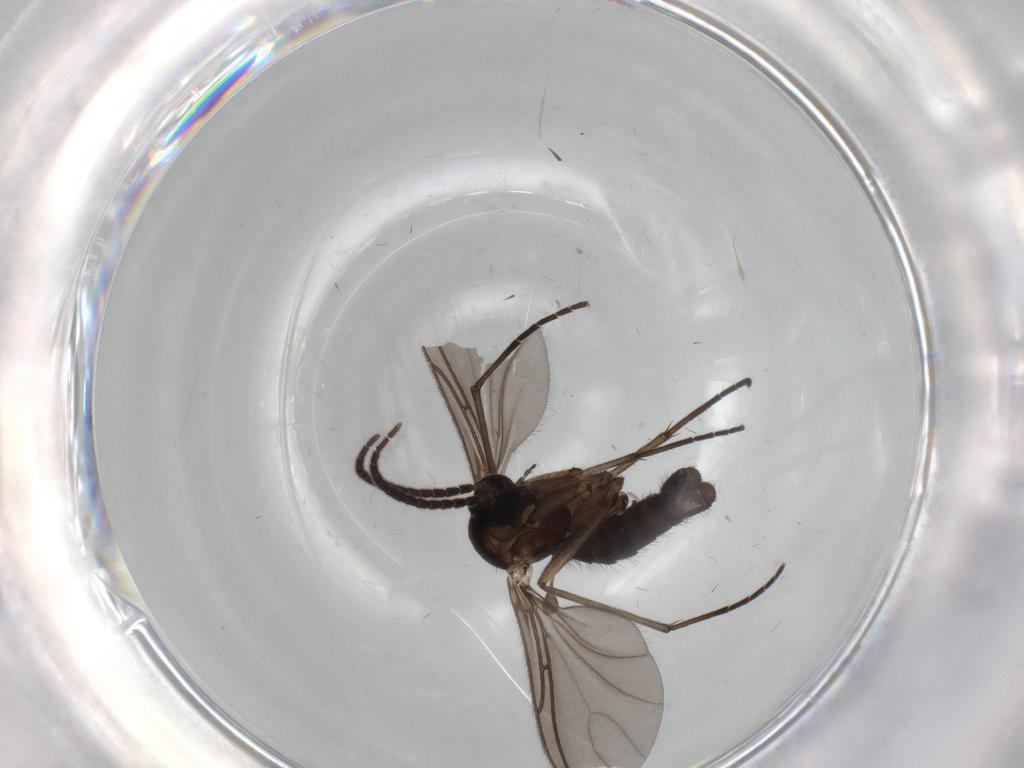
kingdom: Animalia
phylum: Arthropoda
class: Insecta
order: Diptera
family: Sciaridae
